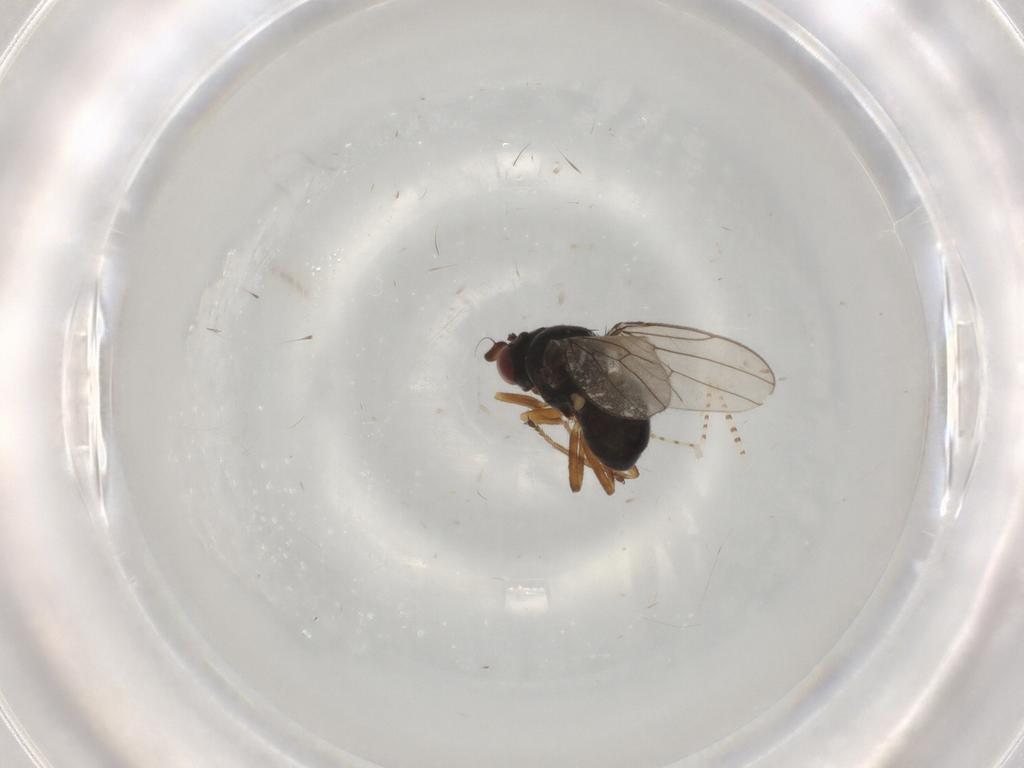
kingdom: Animalia
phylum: Arthropoda
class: Insecta
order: Diptera
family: Ephydridae
